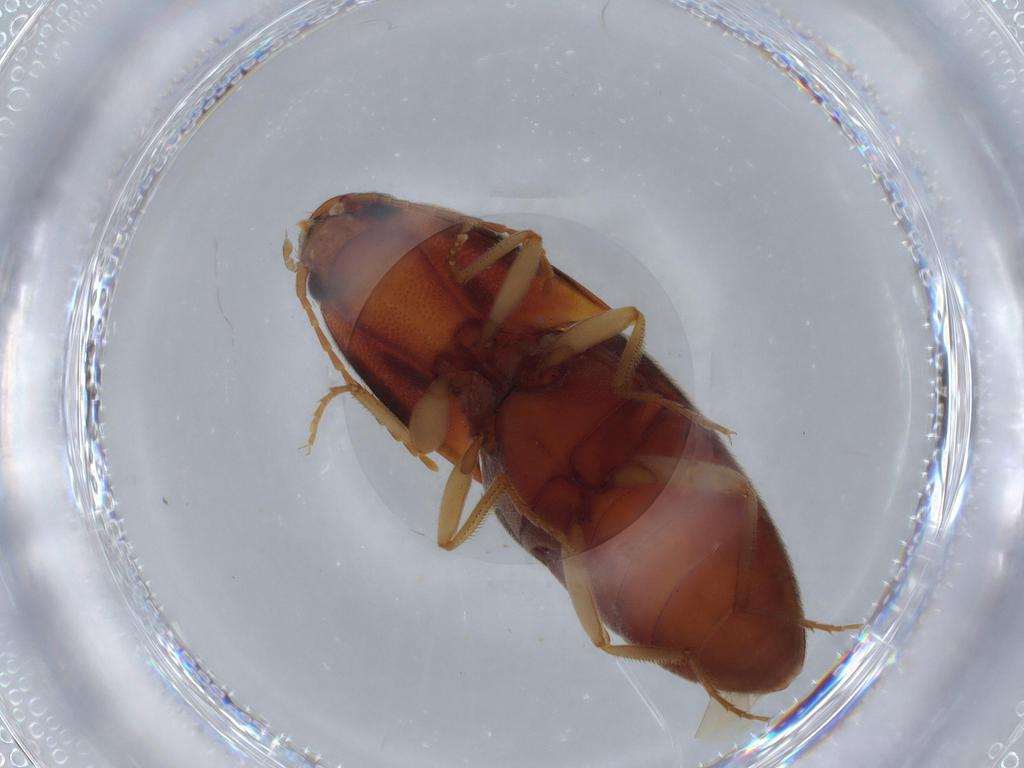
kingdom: Animalia
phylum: Arthropoda
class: Insecta
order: Coleoptera
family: Elateridae
